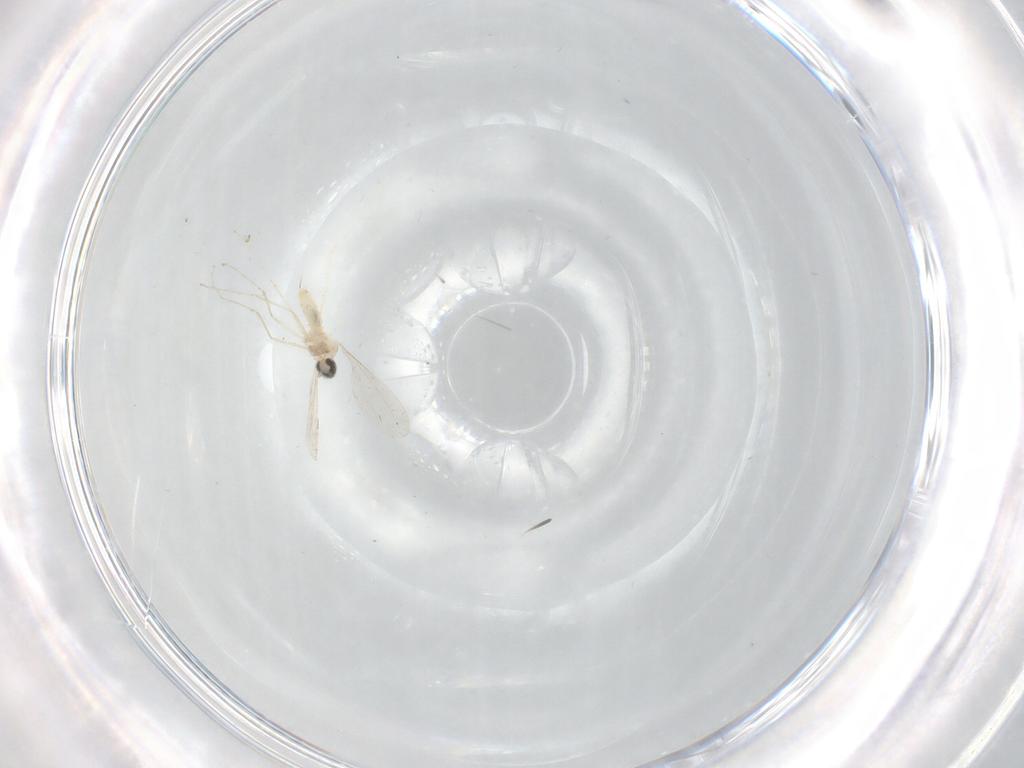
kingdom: Animalia
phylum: Arthropoda
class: Insecta
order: Diptera
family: Cecidomyiidae
